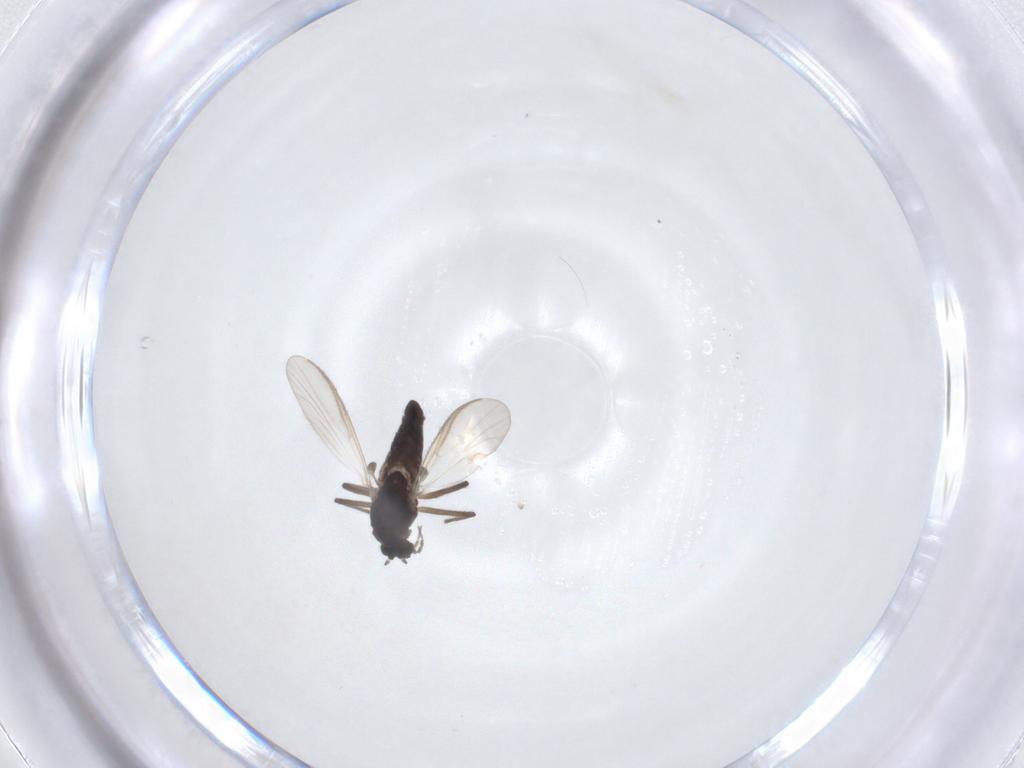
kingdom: Animalia
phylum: Arthropoda
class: Insecta
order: Diptera
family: Chironomidae
